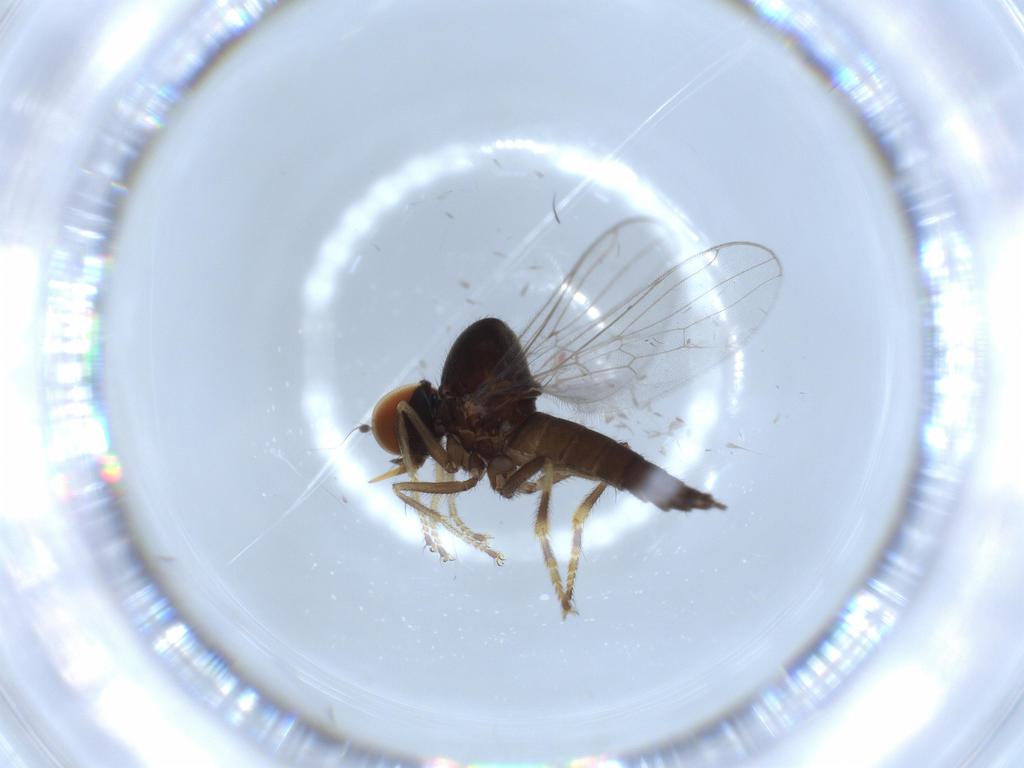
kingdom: Animalia
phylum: Arthropoda
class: Insecta
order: Diptera
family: Hybotidae
